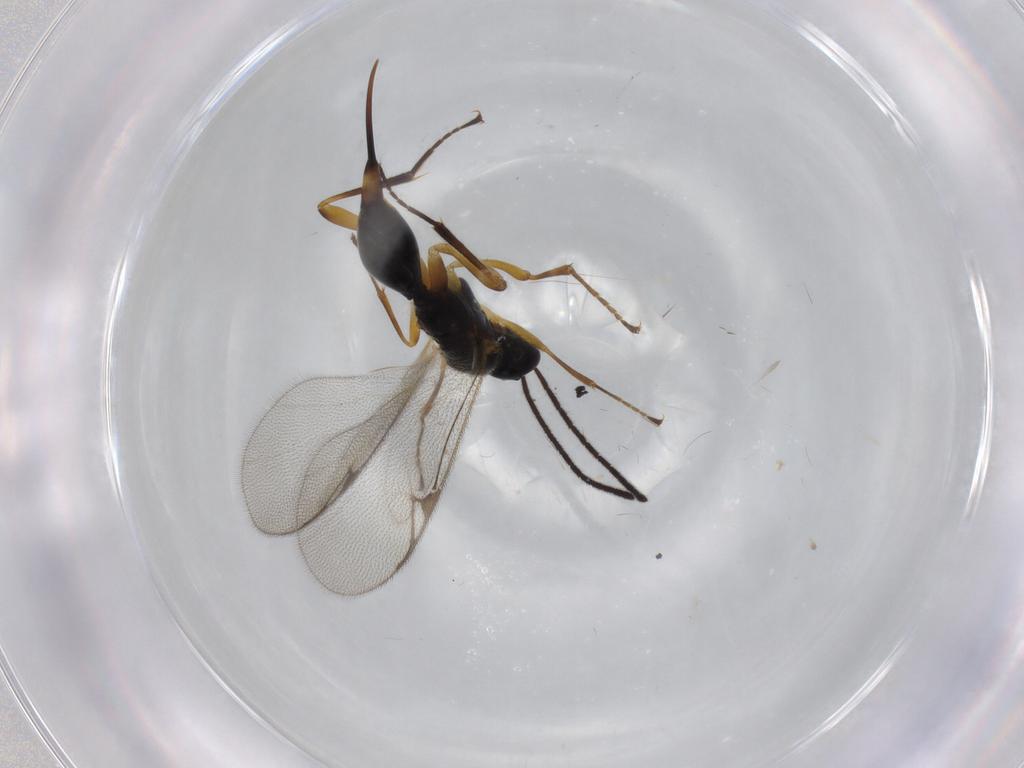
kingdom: Animalia
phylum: Arthropoda
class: Insecta
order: Hymenoptera
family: Proctotrupidae
